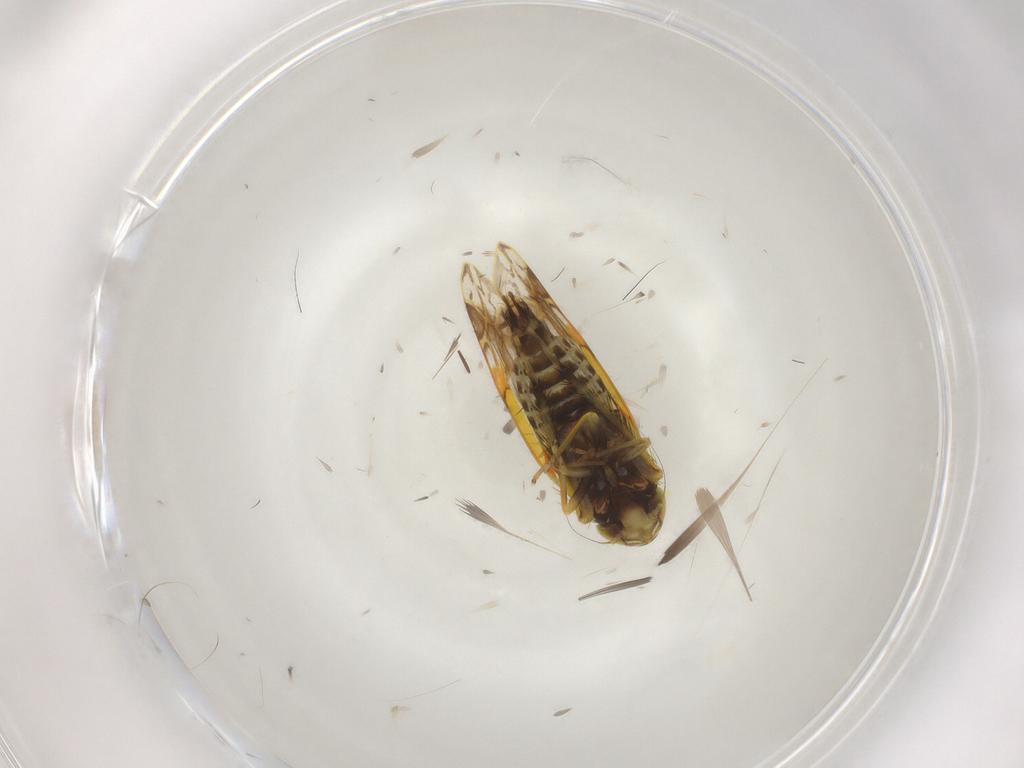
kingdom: Animalia
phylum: Arthropoda
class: Insecta
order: Hemiptera
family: Cicadellidae
